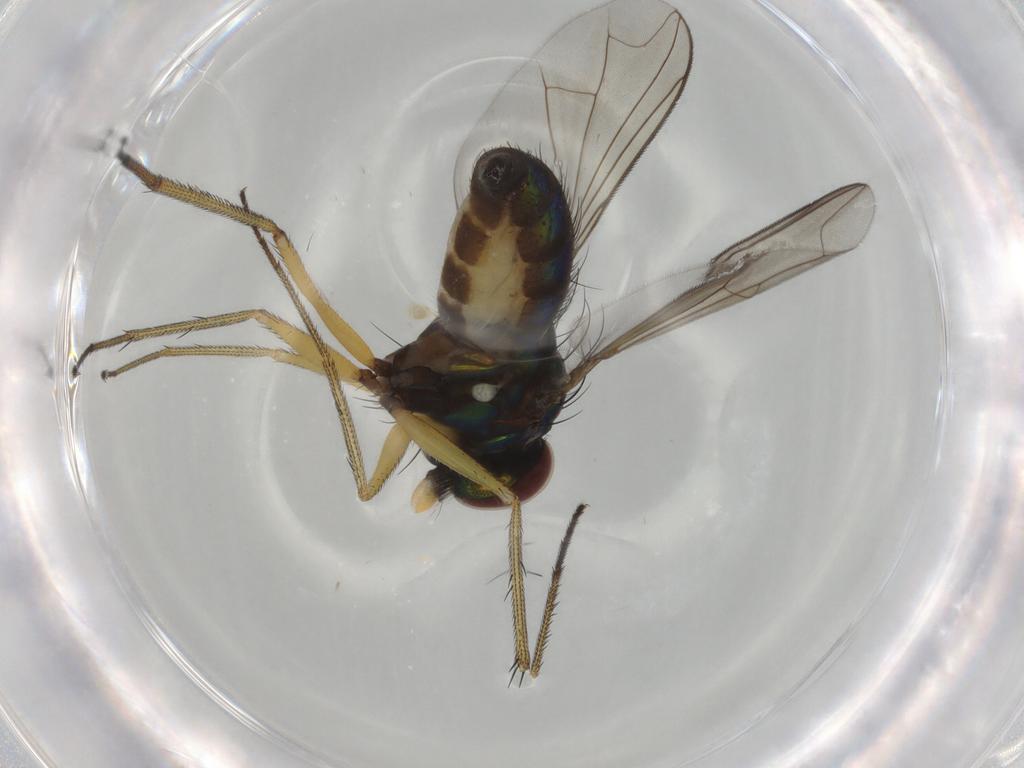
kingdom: Animalia
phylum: Arthropoda
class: Insecta
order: Diptera
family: Dolichopodidae
